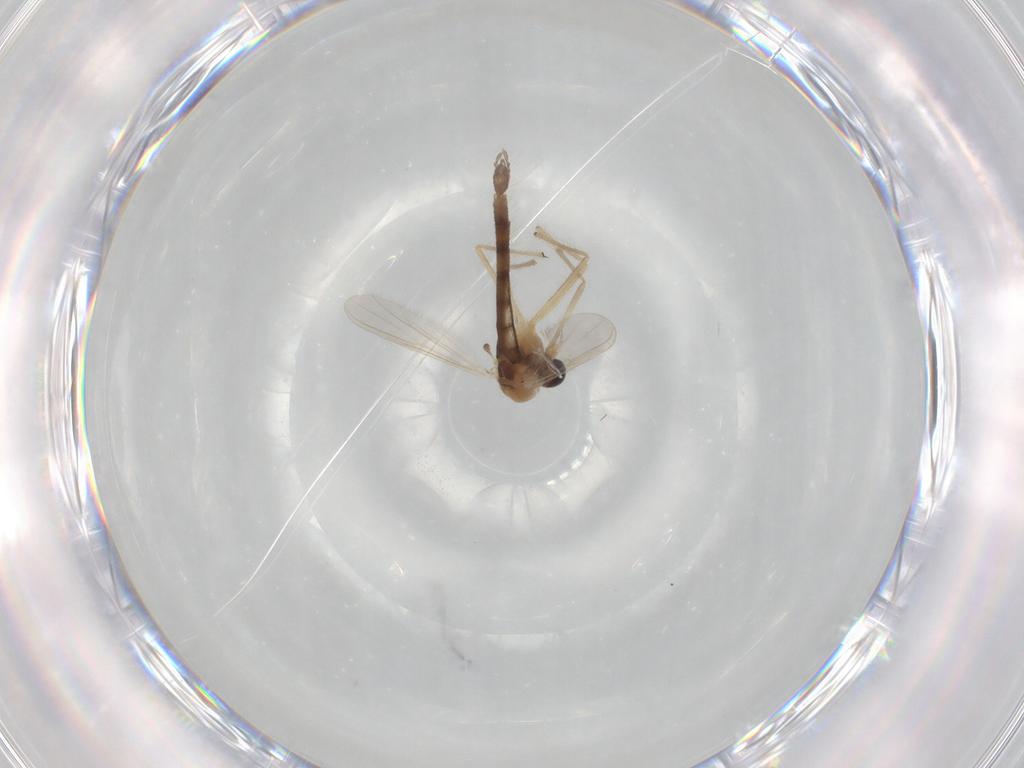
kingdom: Animalia
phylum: Arthropoda
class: Insecta
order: Diptera
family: Chironomidae
